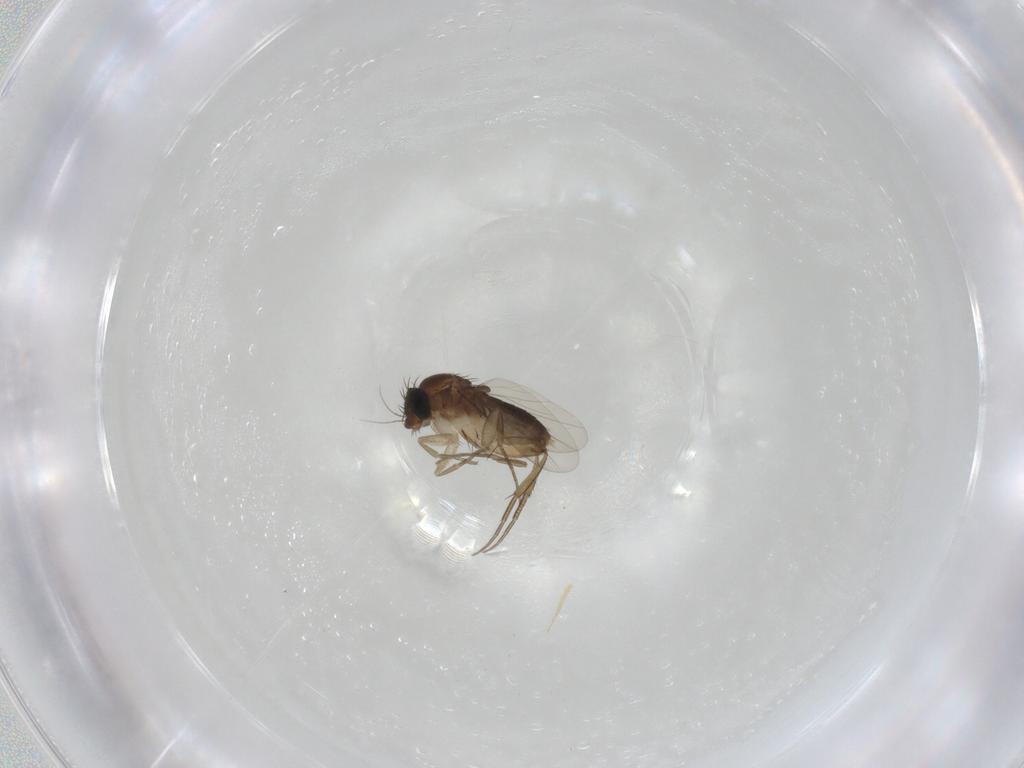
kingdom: Animalia
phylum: Arthropoda
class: Insecta
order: Diptera
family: Phoridae
